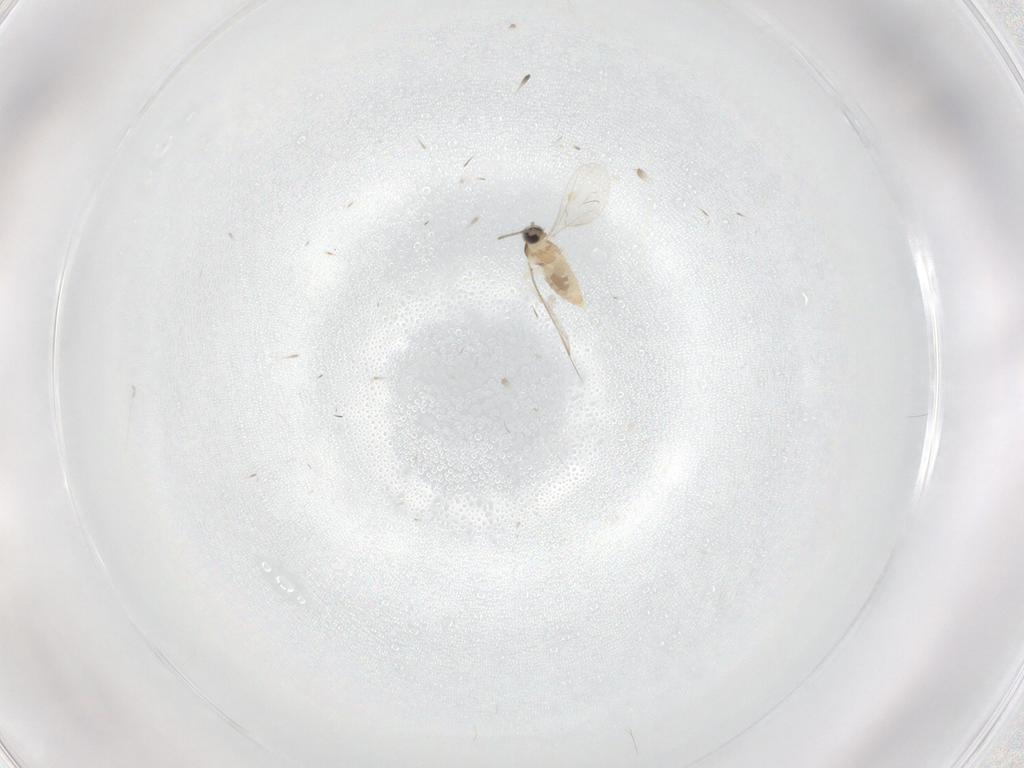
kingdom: Animalia
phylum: Arthropoda
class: Insecta
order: Diptera
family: Cecidomyiidae
